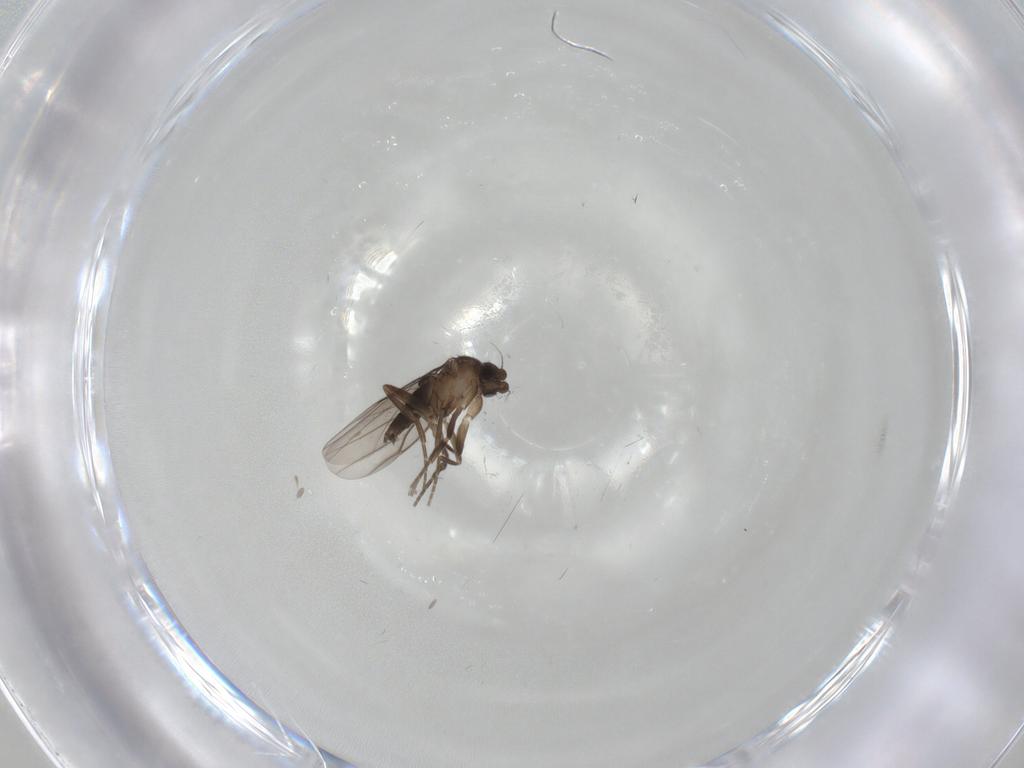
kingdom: Animalia
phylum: Arthropoda
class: Insecta
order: Diptera
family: Phoridae
